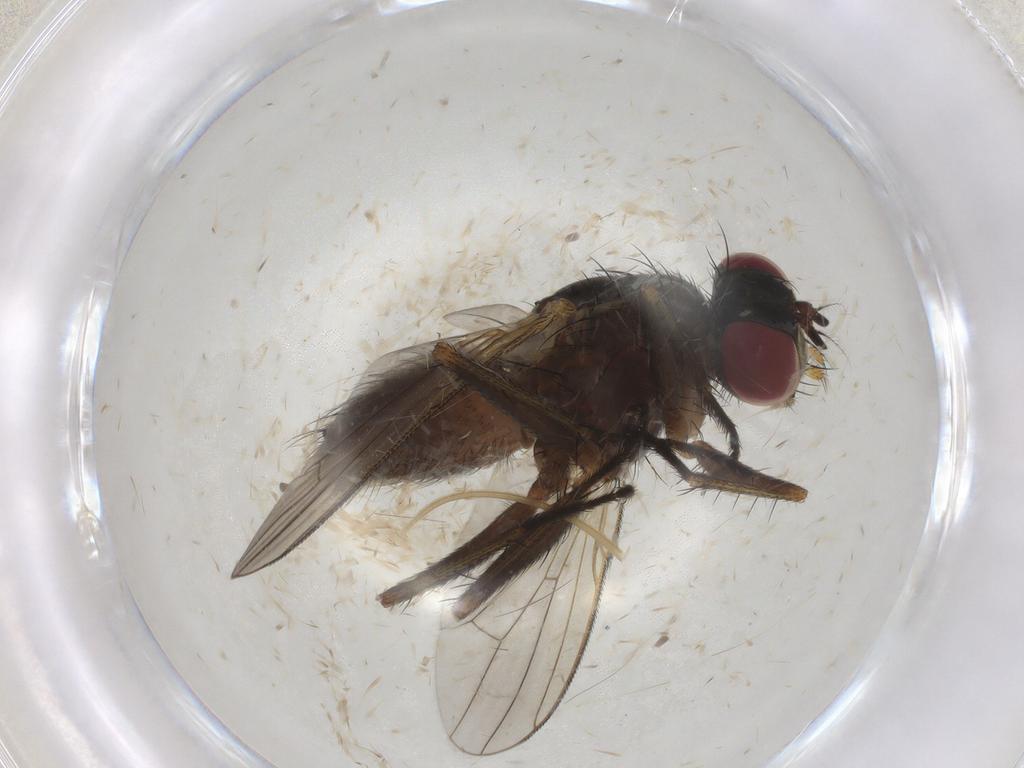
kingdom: Animalia
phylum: Arthropoda
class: Insecta
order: Diptera
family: Muscidae
